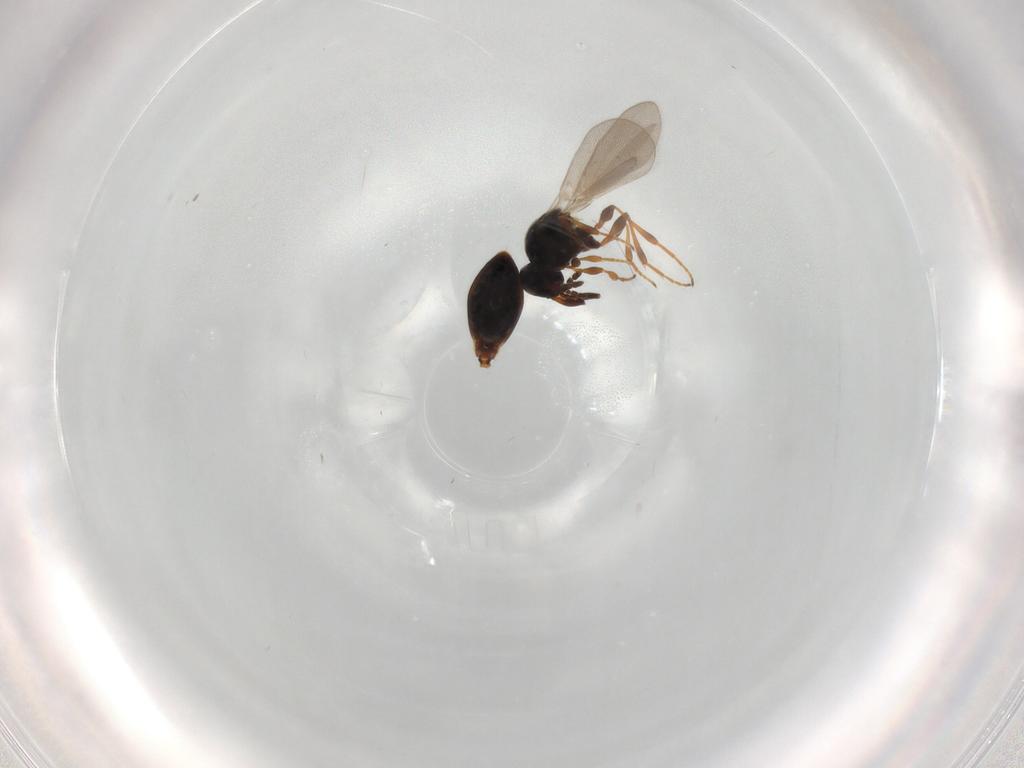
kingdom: Animalia
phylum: Arthropoda
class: Insecta
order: Hymenoptera
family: Platygastridae
